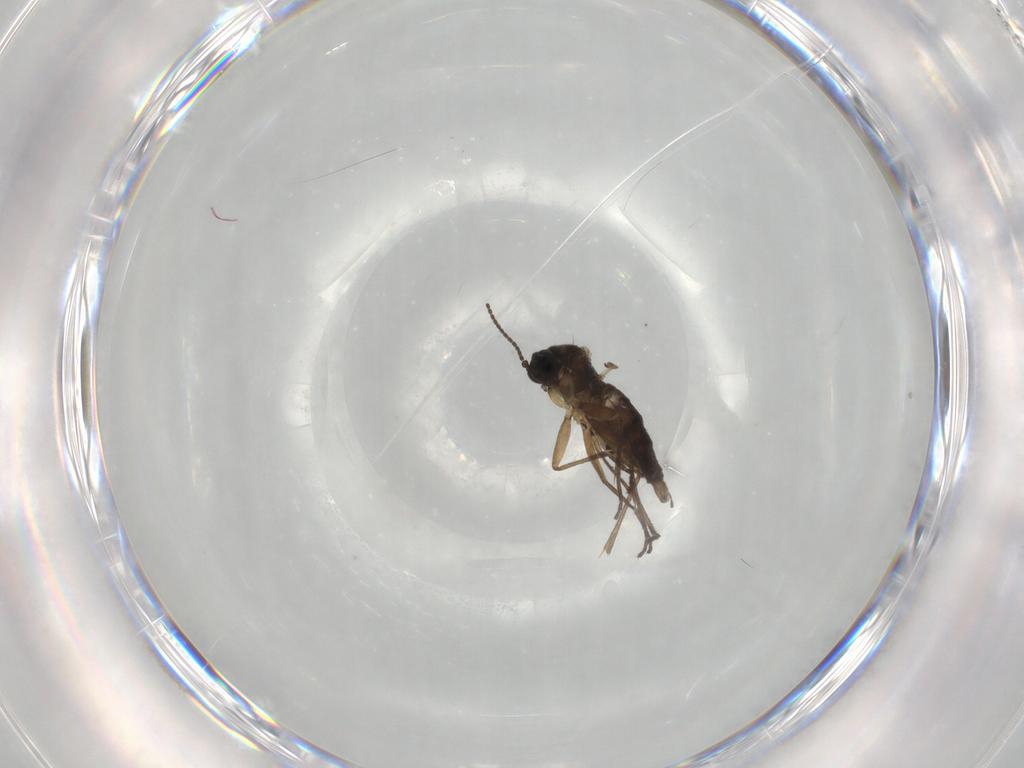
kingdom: Animalia
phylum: Arthropoda
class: Insecta
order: Diptera
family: Sciaridae
